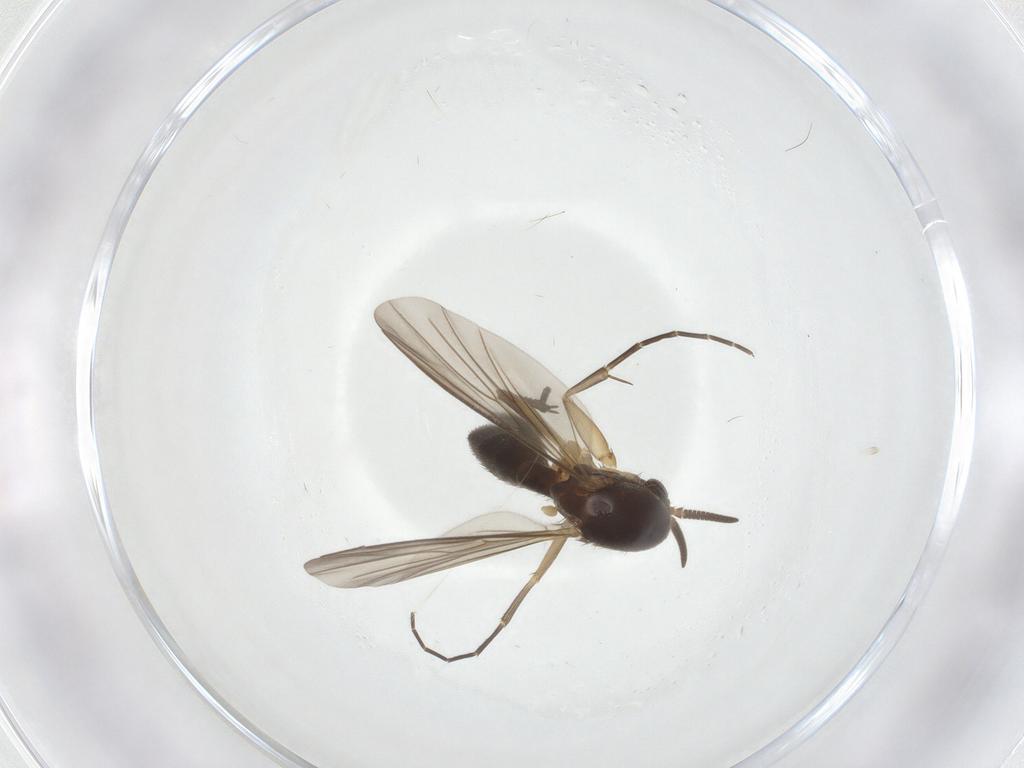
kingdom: Animalia
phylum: Arthropoda
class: Insecta
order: Diptera
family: Mycetophilidae
